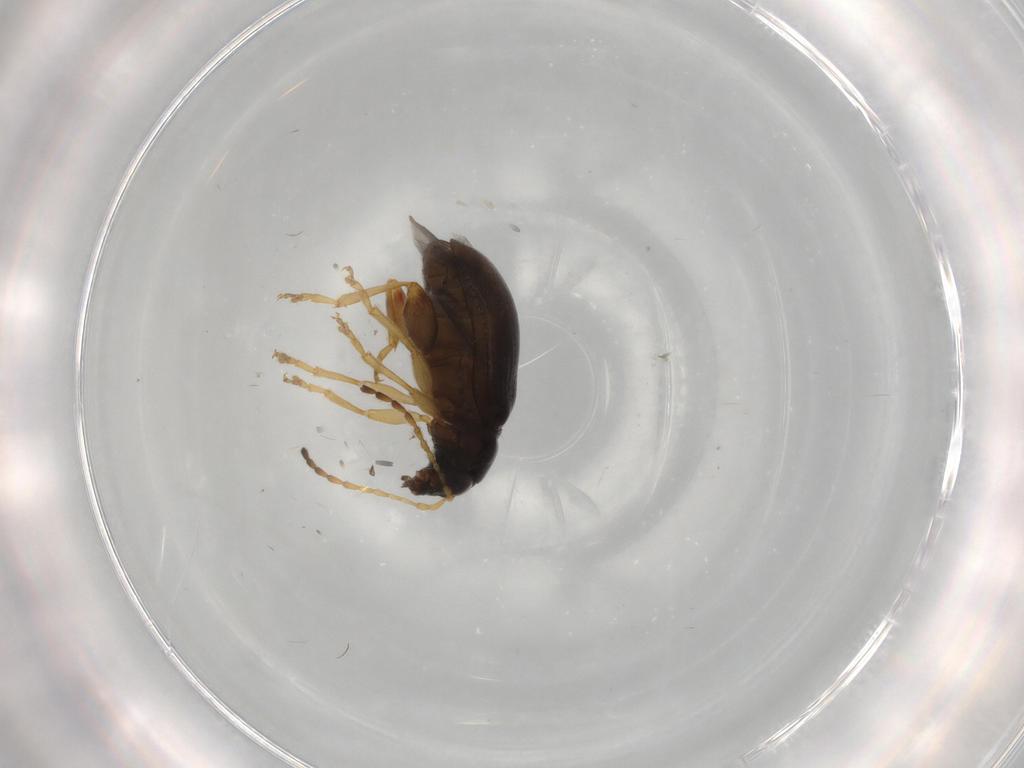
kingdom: Animalia
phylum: Arthropoda
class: Insecta
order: Coleoptera
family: Chrysomelidae
